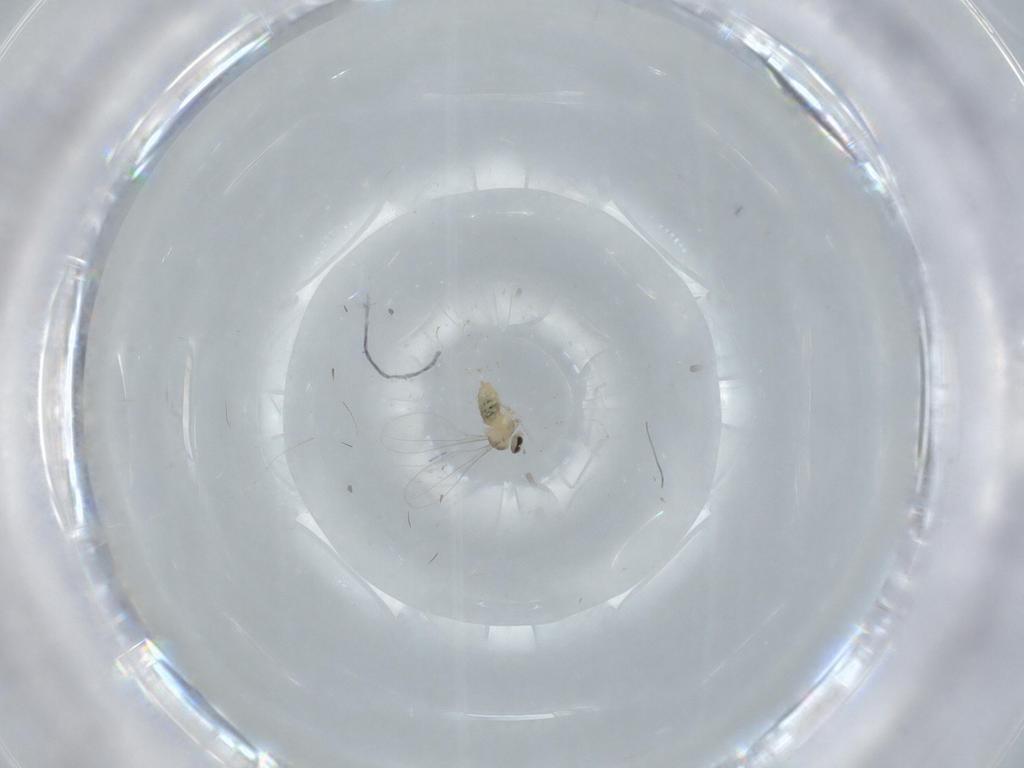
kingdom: Animalia
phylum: Arthropoda
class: Insecta
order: Diptera
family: Cecidomyiidae
